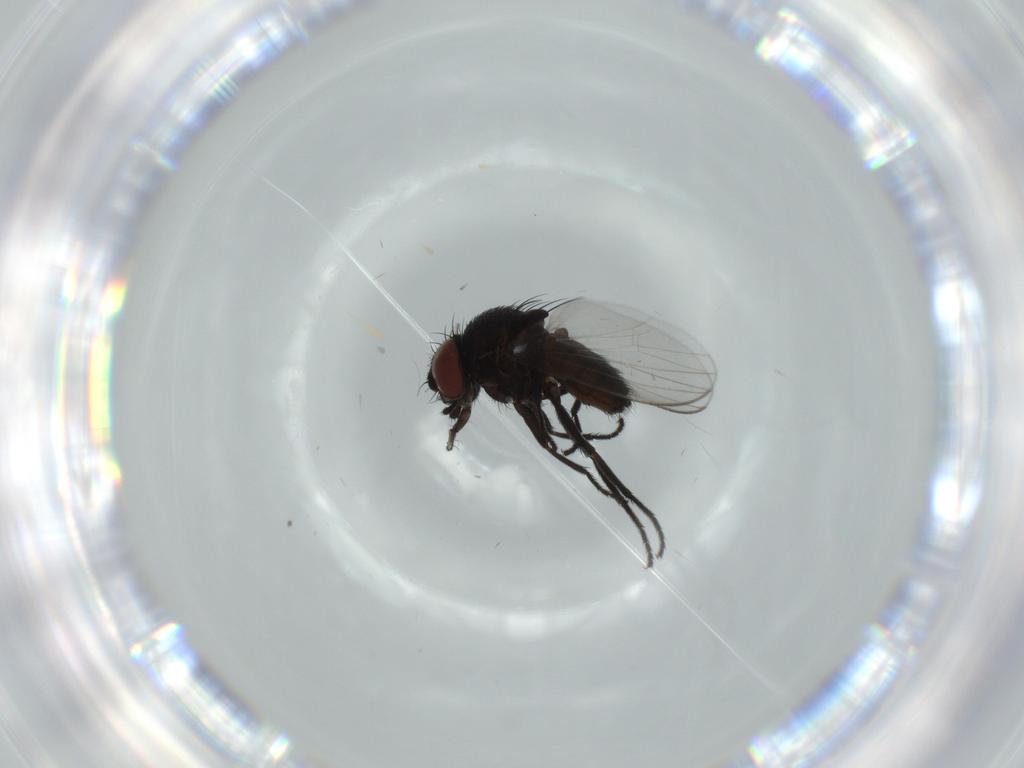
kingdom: Animalia
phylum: Arthropoda
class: Insecta
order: Diptera
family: Milichiidae
